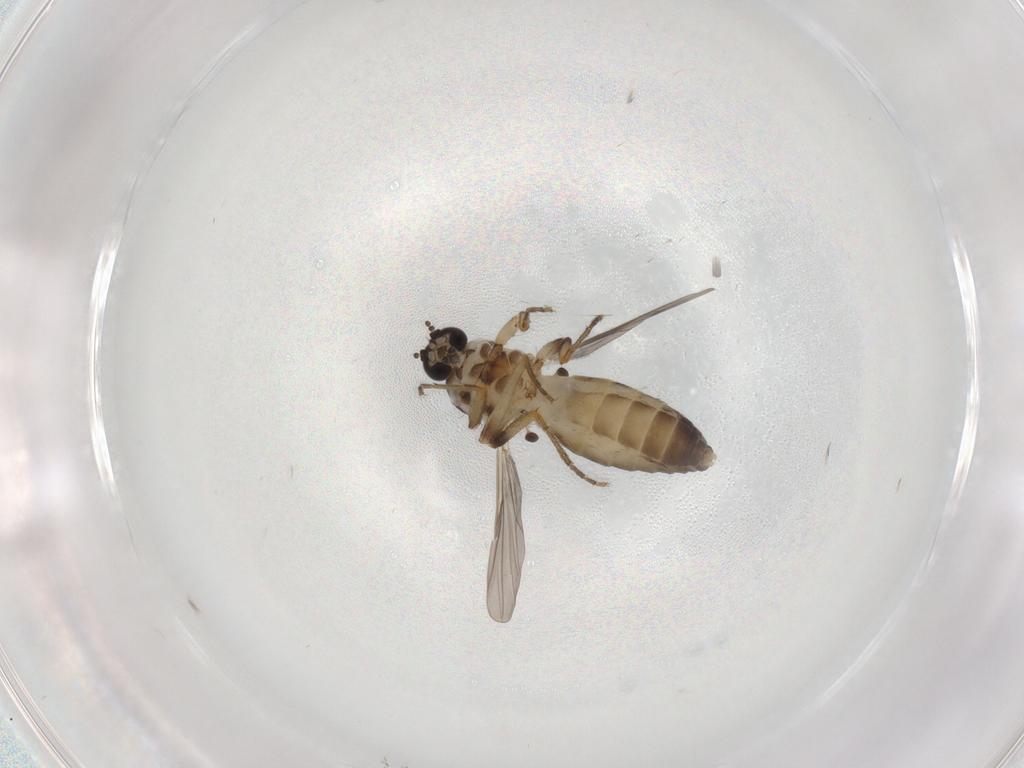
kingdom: Animalia
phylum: Arthropoda
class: Insecta
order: Diptera
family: Ceratopogonidae
